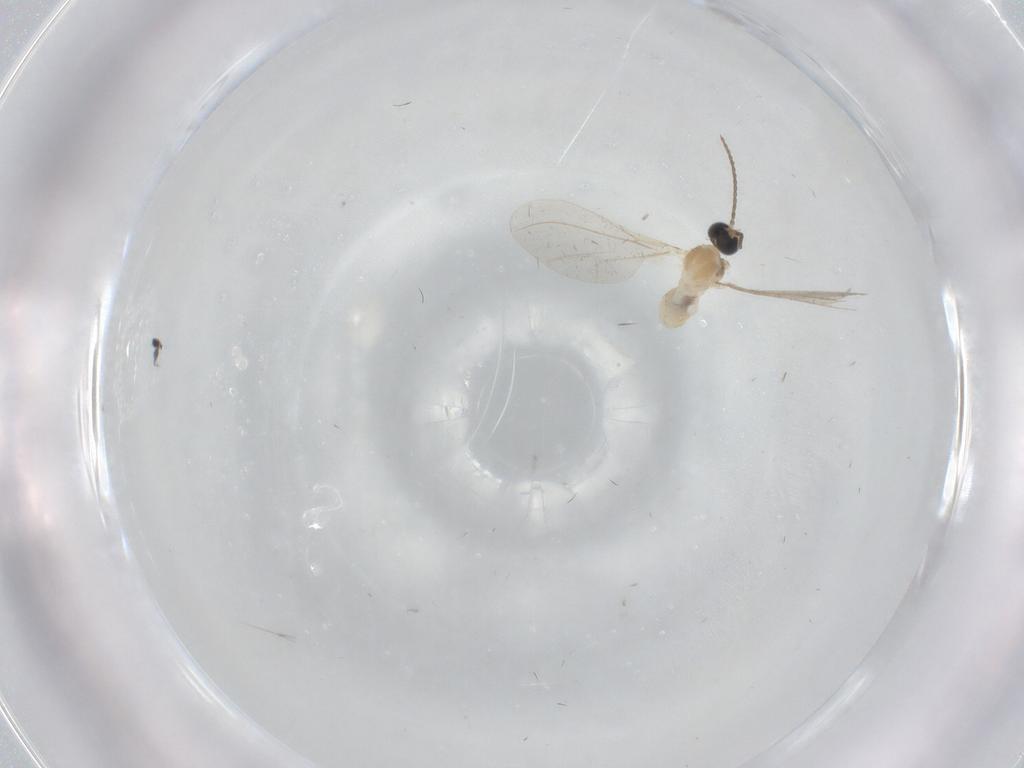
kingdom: Animalia
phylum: Arthropoda
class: Insecta
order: Diptera
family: Cecidomyiidae
